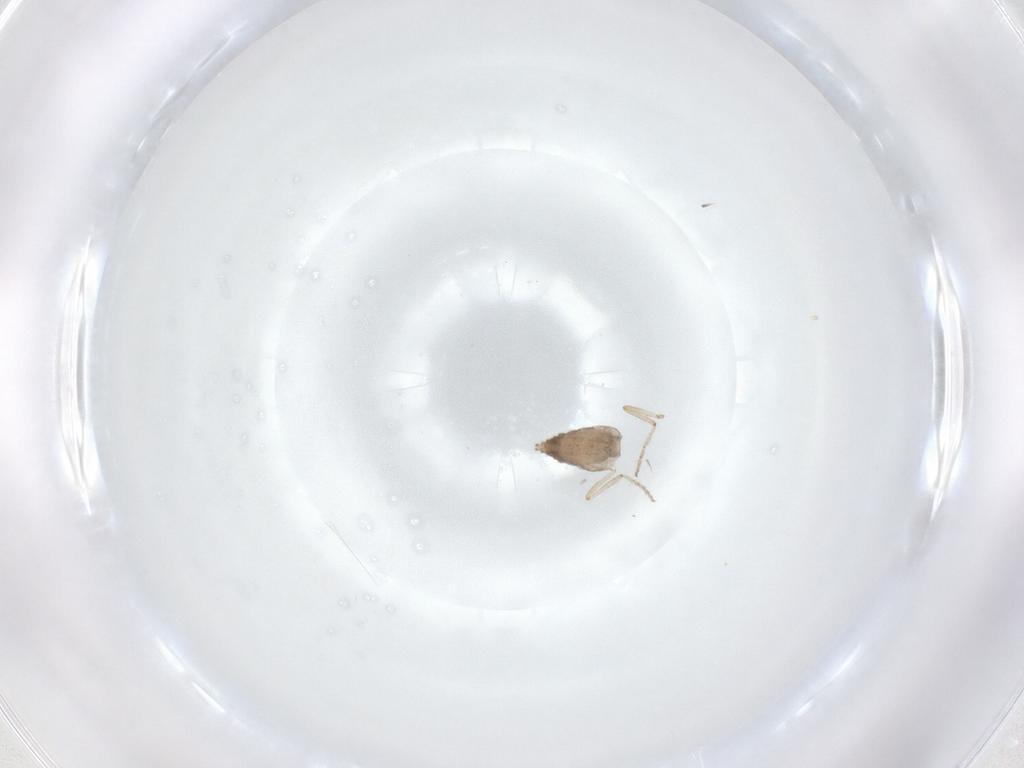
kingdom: Animalia
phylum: Arthropoda
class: Insecta
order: Diptera
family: Ceratopogonidae
